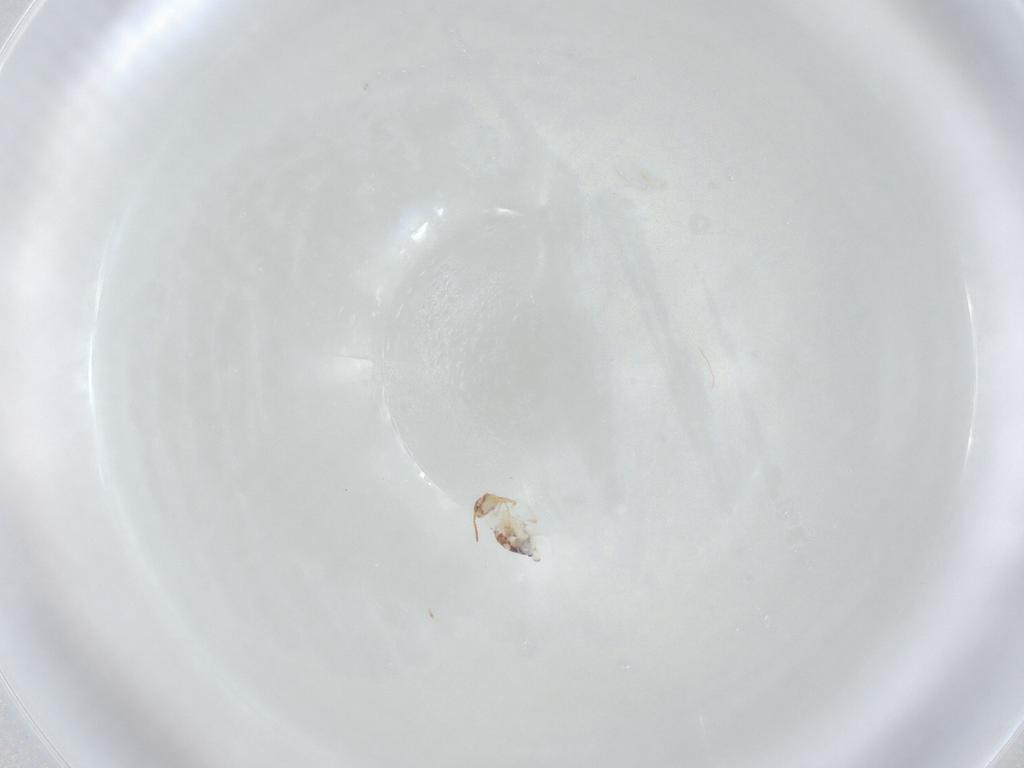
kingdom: Animalia
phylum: Arthropoda
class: Collembola
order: Symphypleona
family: Bourletiellidae
